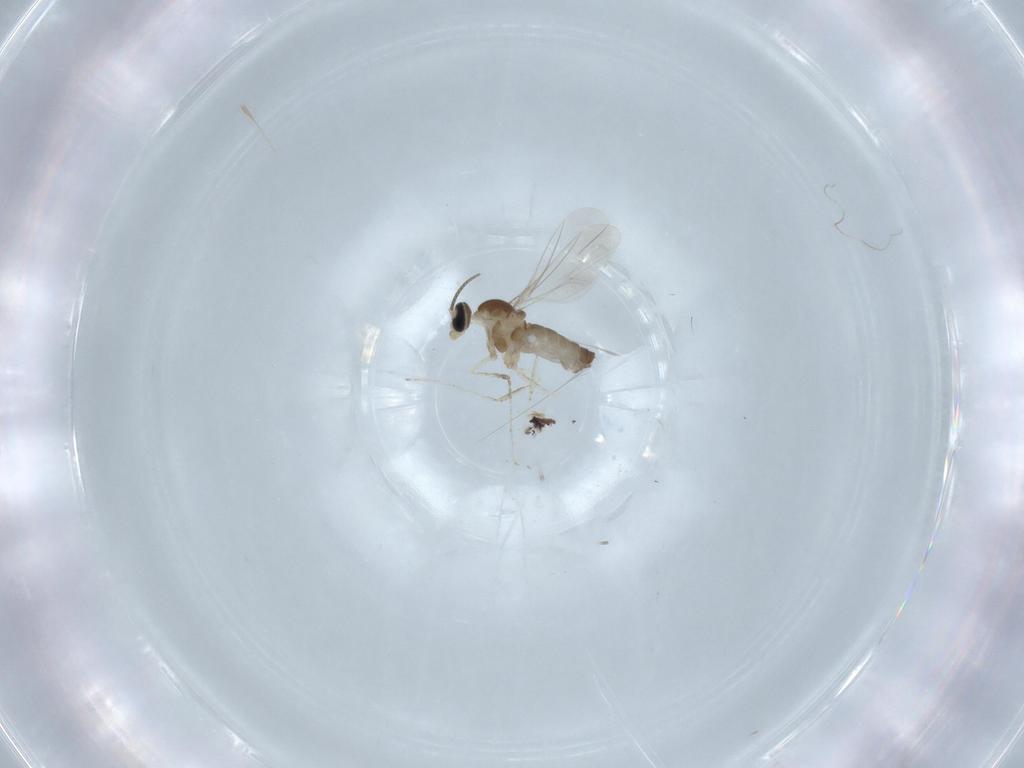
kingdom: Animalia
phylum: Arthropoda
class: Insecta
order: Diptera
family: Cecidomyiidae
